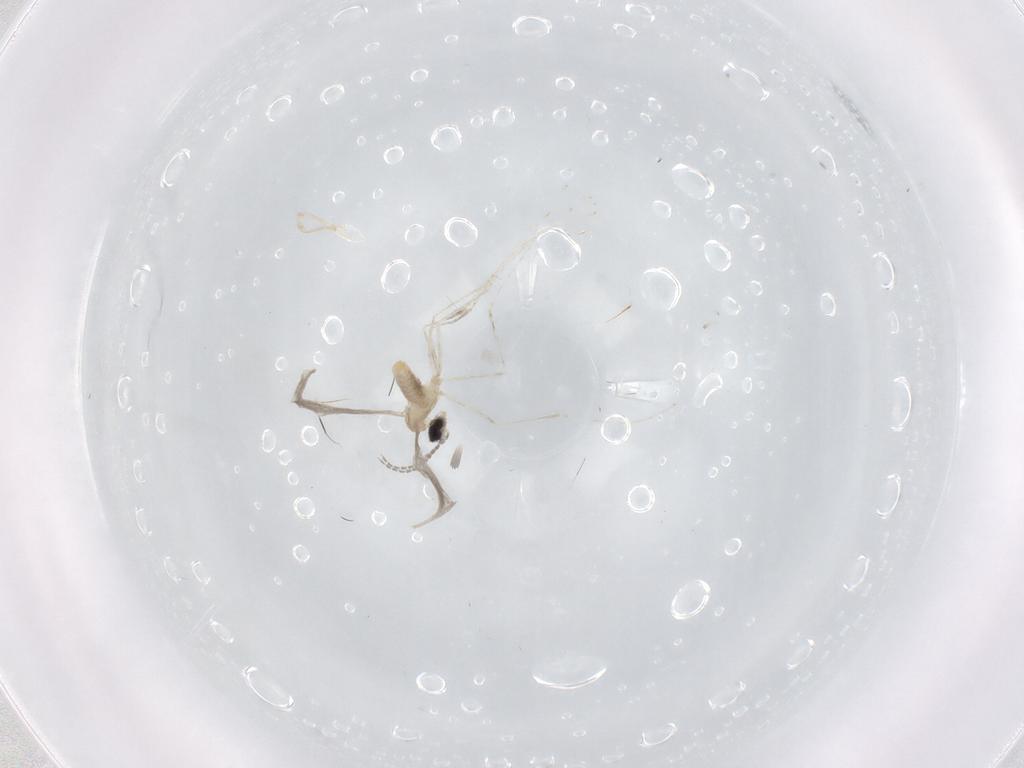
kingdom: Animalia
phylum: Arthropoda
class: Insecta
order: Diptera
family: Cecidomyiidae
